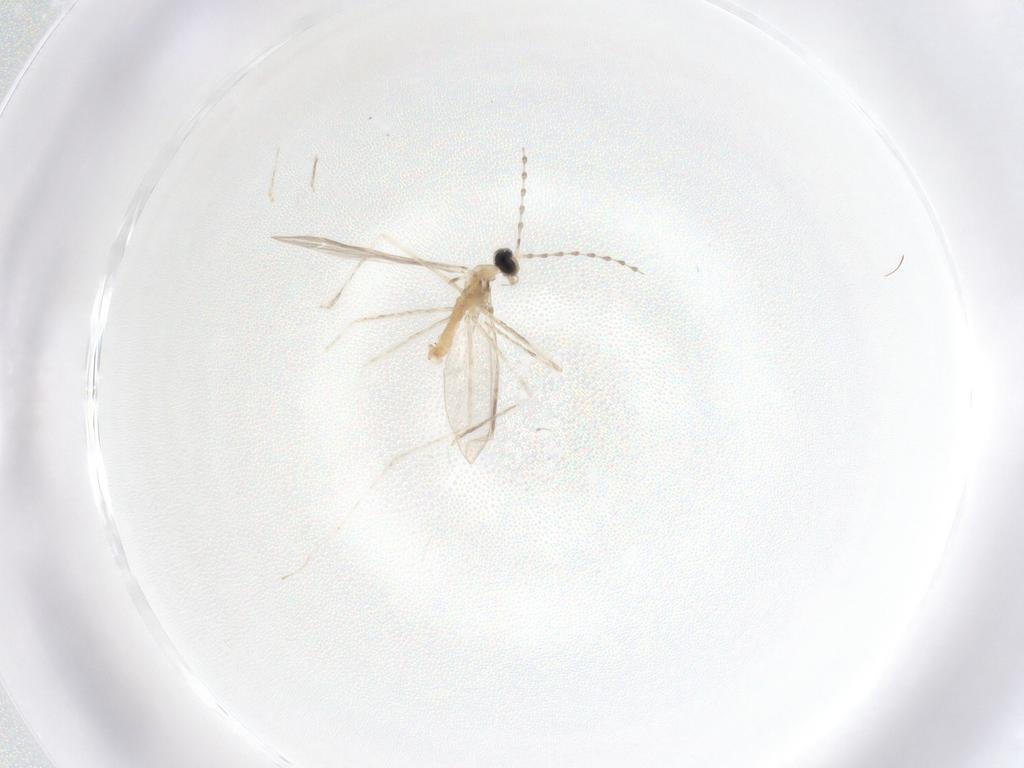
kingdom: Animalia
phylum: Arthropoda
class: Insecta
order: Diptera
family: Cecidomyiidae
